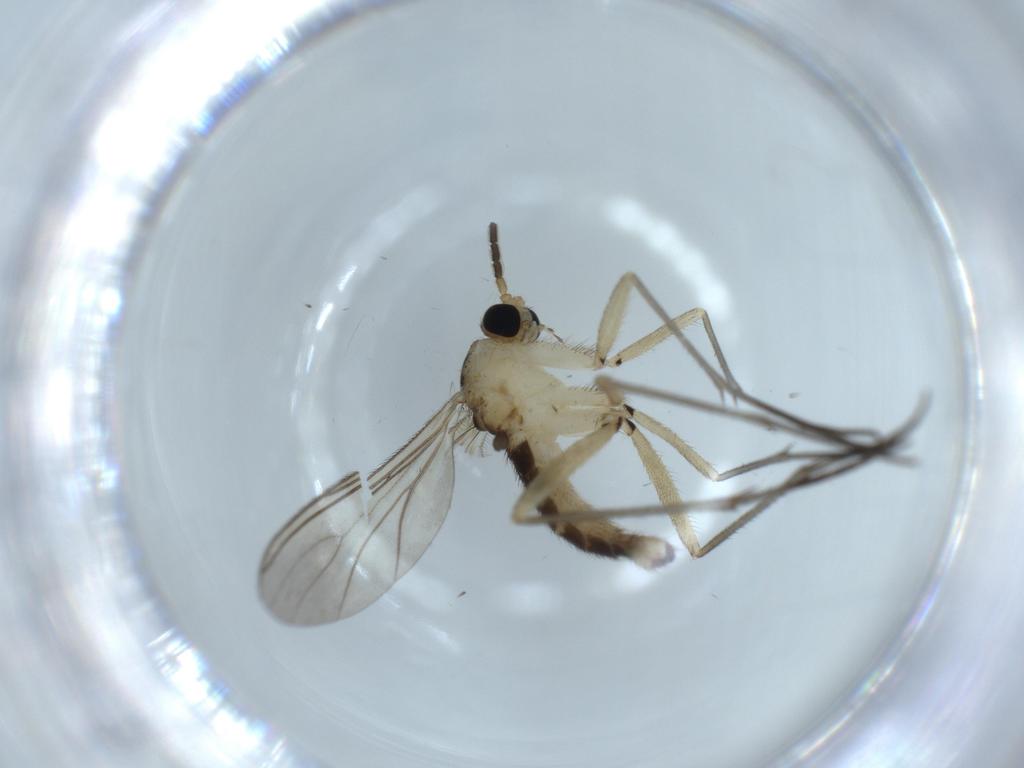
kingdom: Animalia
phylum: Arthropoda
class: Insecta
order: Diptera
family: Sciaridae
